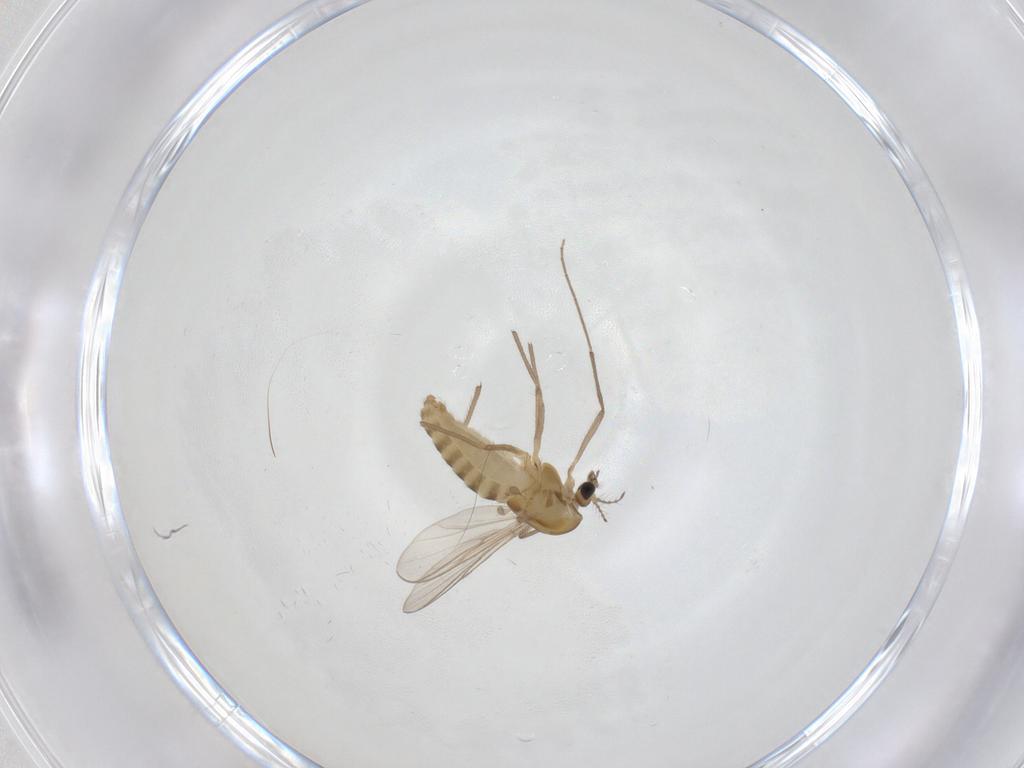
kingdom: Animalia
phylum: Arthropoda
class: Insecta
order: Diptera
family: Chironomidae
